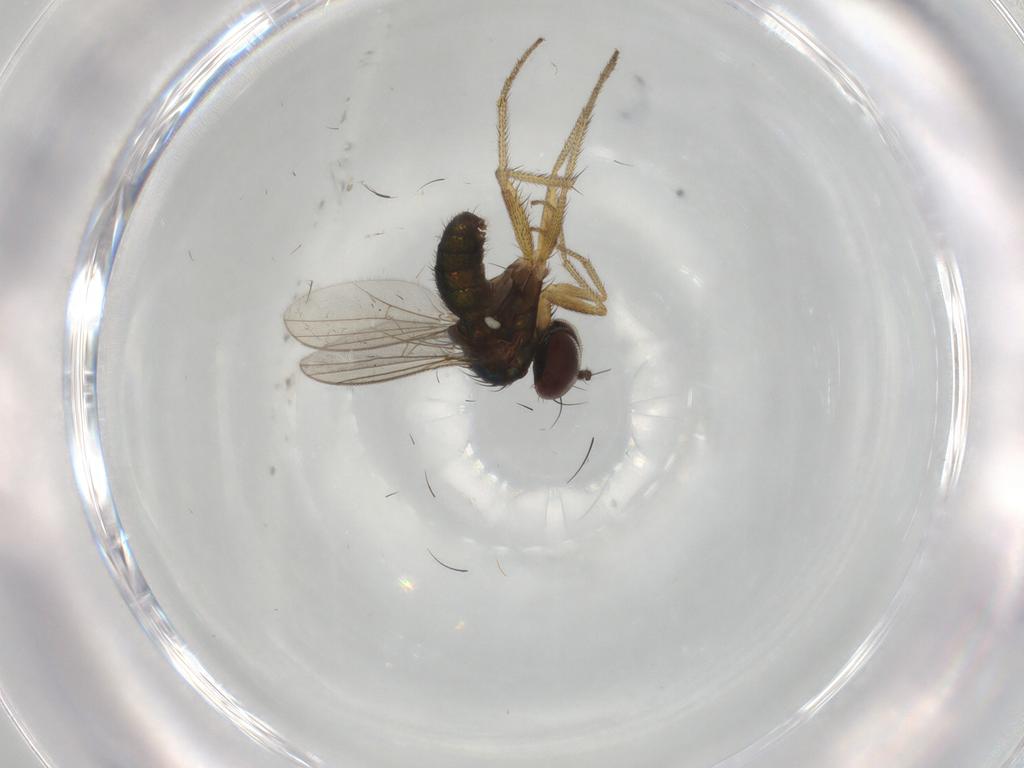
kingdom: Animalia
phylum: Arthropoda
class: Insecta
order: Diptera
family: Dolichopodidae
